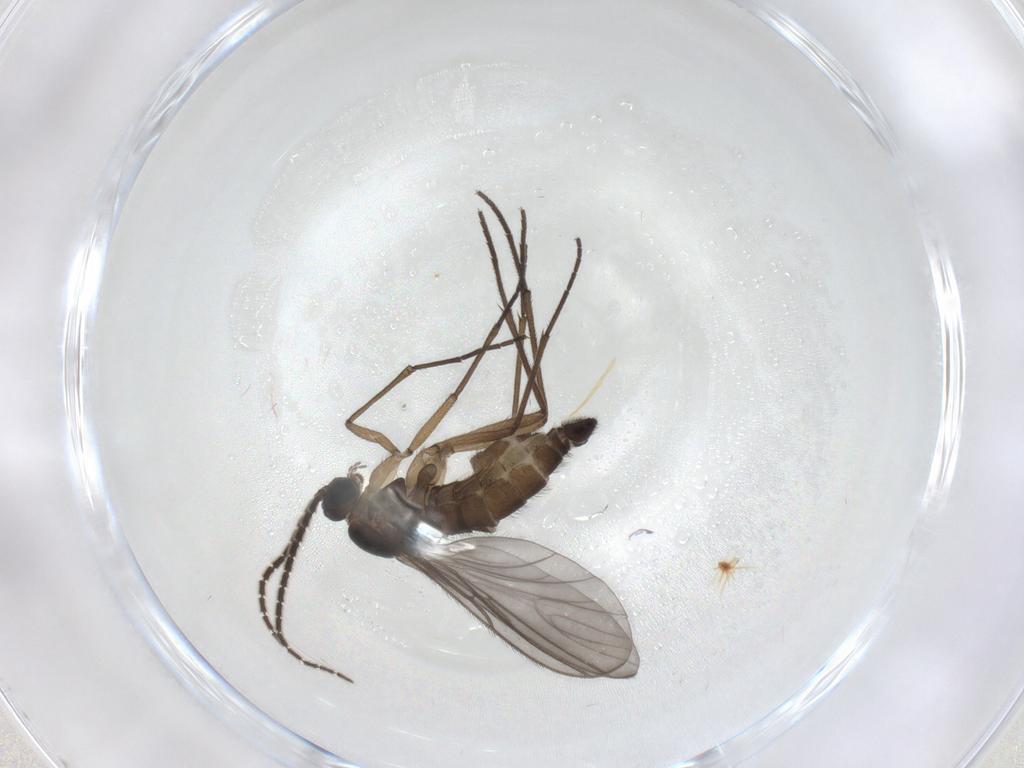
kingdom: Animalia
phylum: Arthropoda
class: Insecta
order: Diptera
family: Sciaridae
